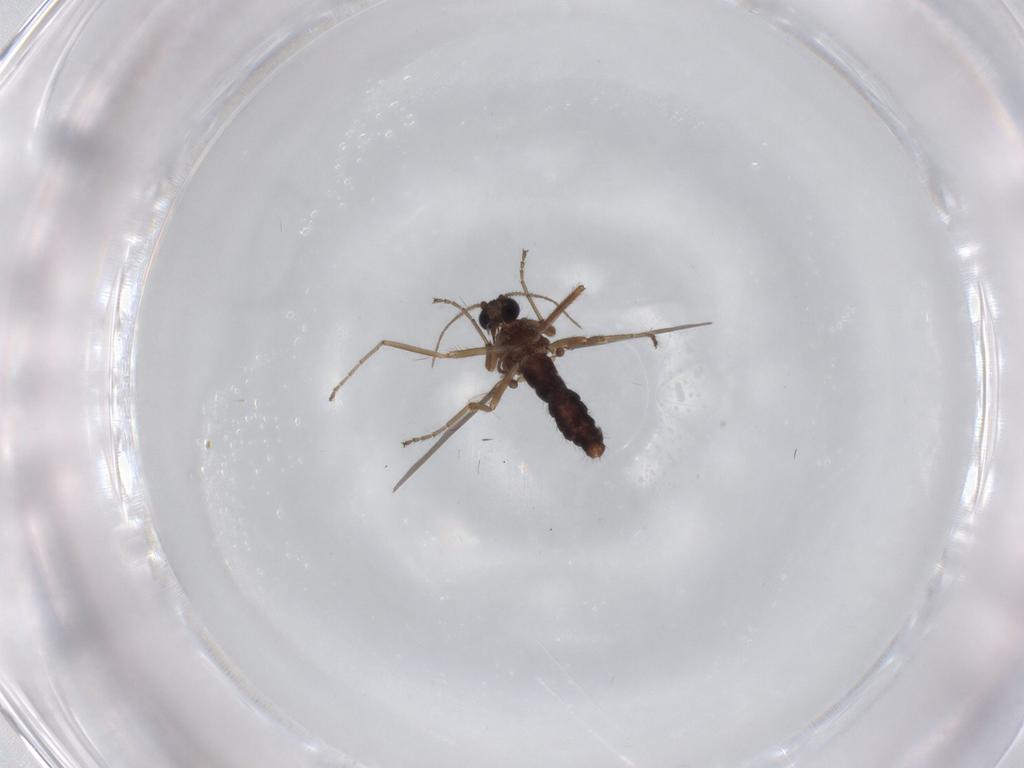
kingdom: Animalia
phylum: Arthropoda
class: Insecta
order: Diptera
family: Ceratopogonidae
